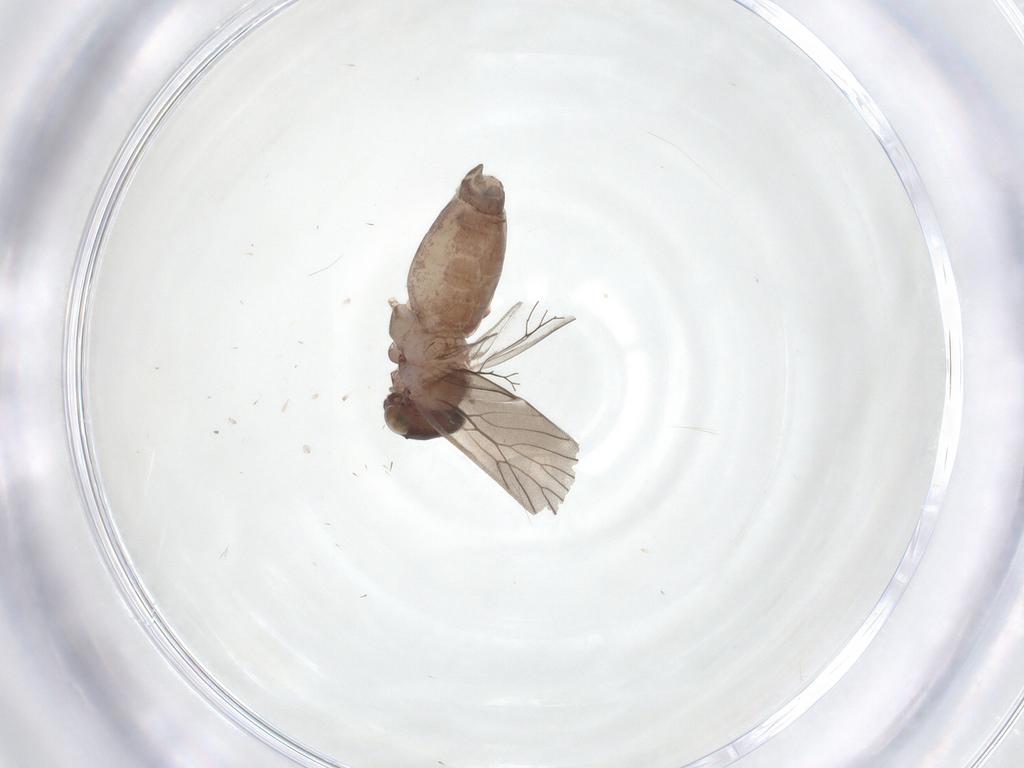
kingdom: Animalia
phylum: Arthropoda
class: Insecta
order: Psocodea
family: Lepidopsocidae
